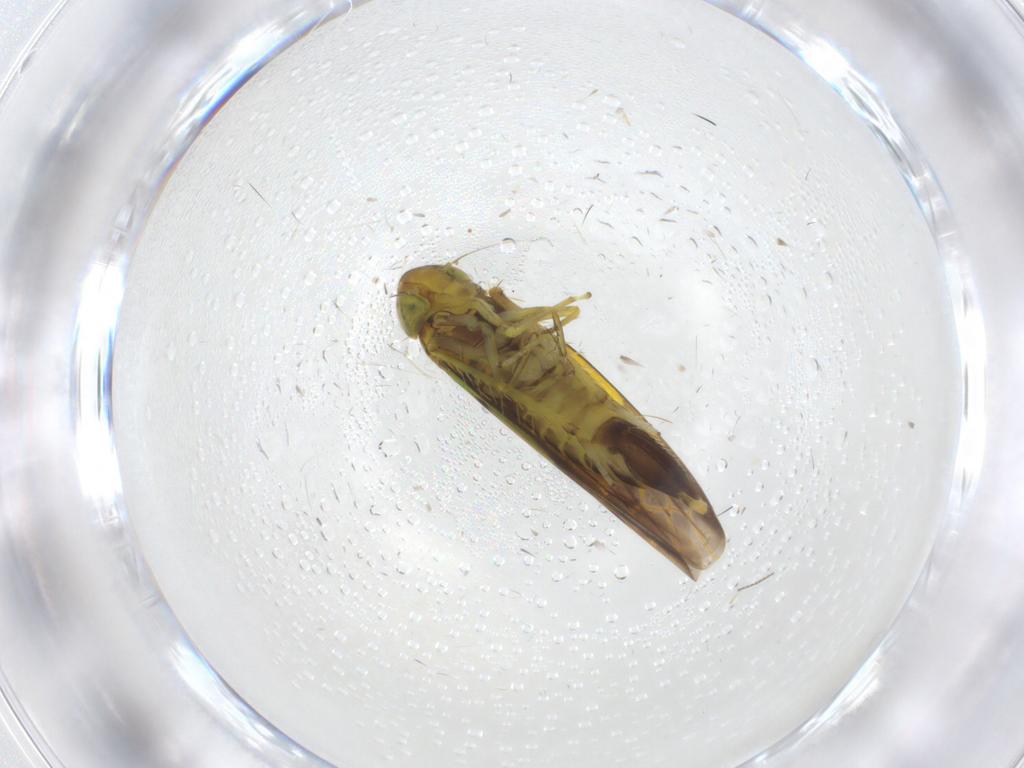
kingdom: Animalia
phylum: Arthropoda
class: Insecta
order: Hemiptera
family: Cicadellidae
